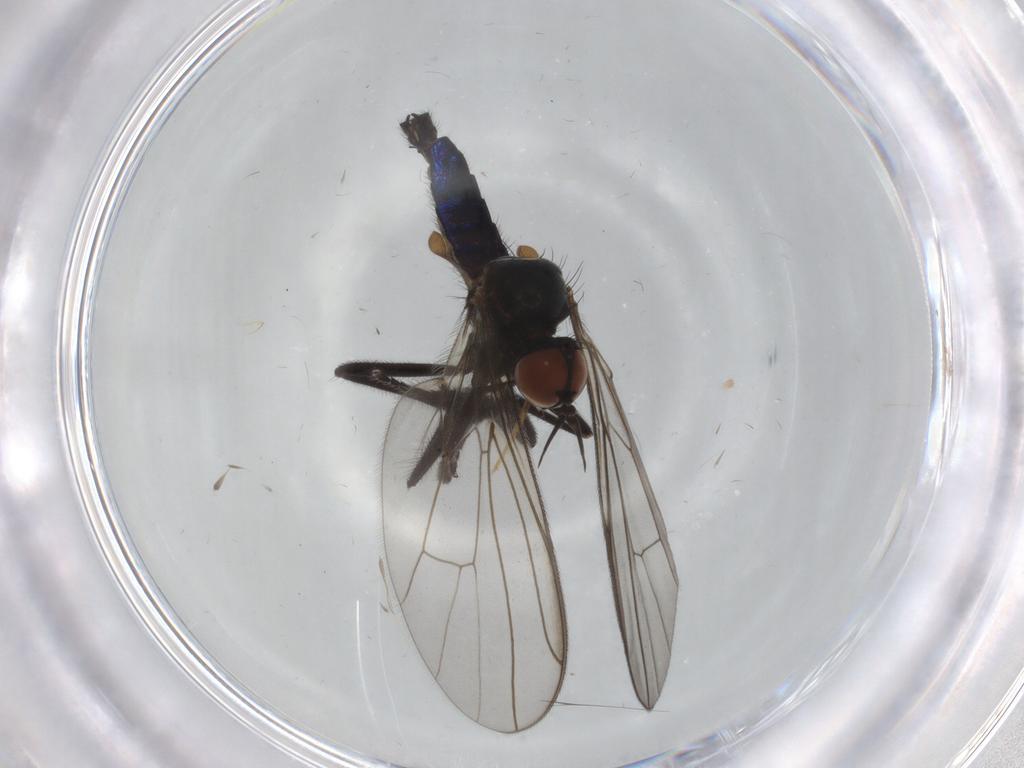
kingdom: Animalia
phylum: Arthropoda
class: Insecta
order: Diptera
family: Empididae
